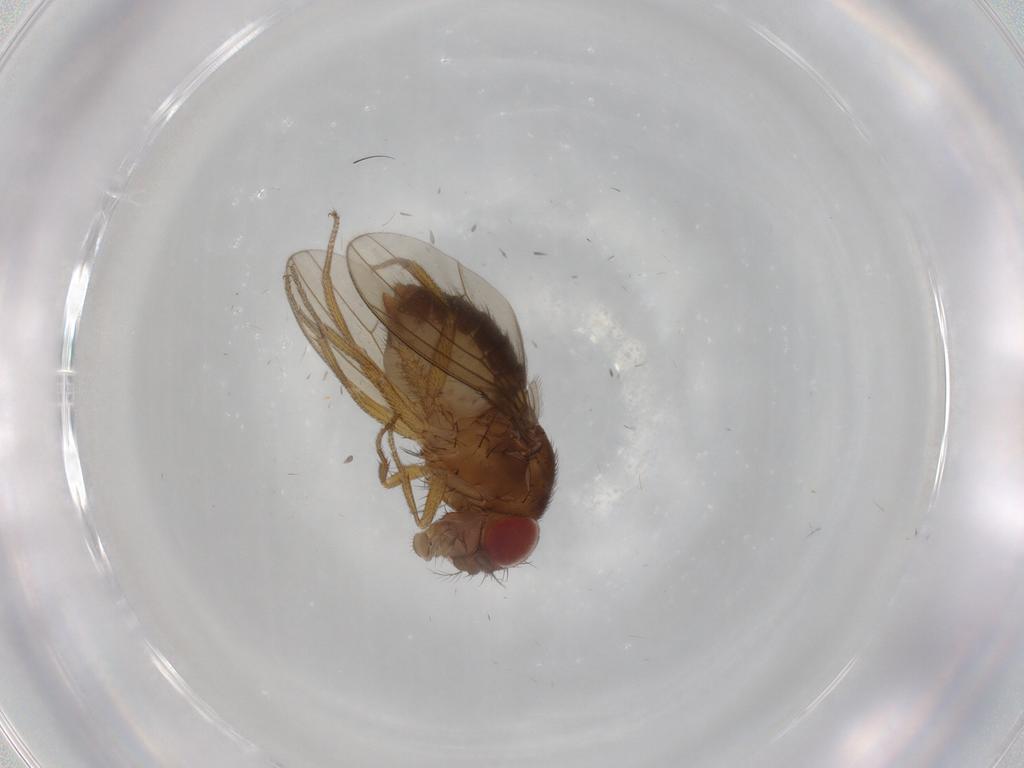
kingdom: Animalia
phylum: Arthropoda
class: Insecta
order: Diptera
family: Drosophilidae
